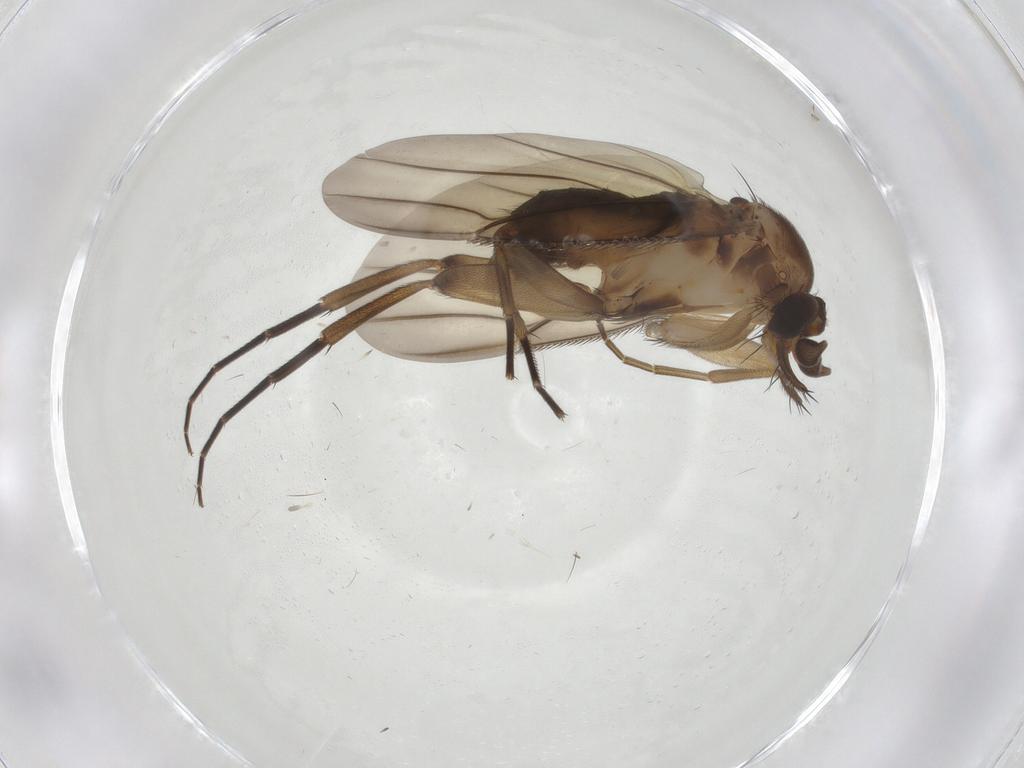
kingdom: Animalia
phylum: Arthropoda
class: Insecta
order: Diptera
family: Phoridae
